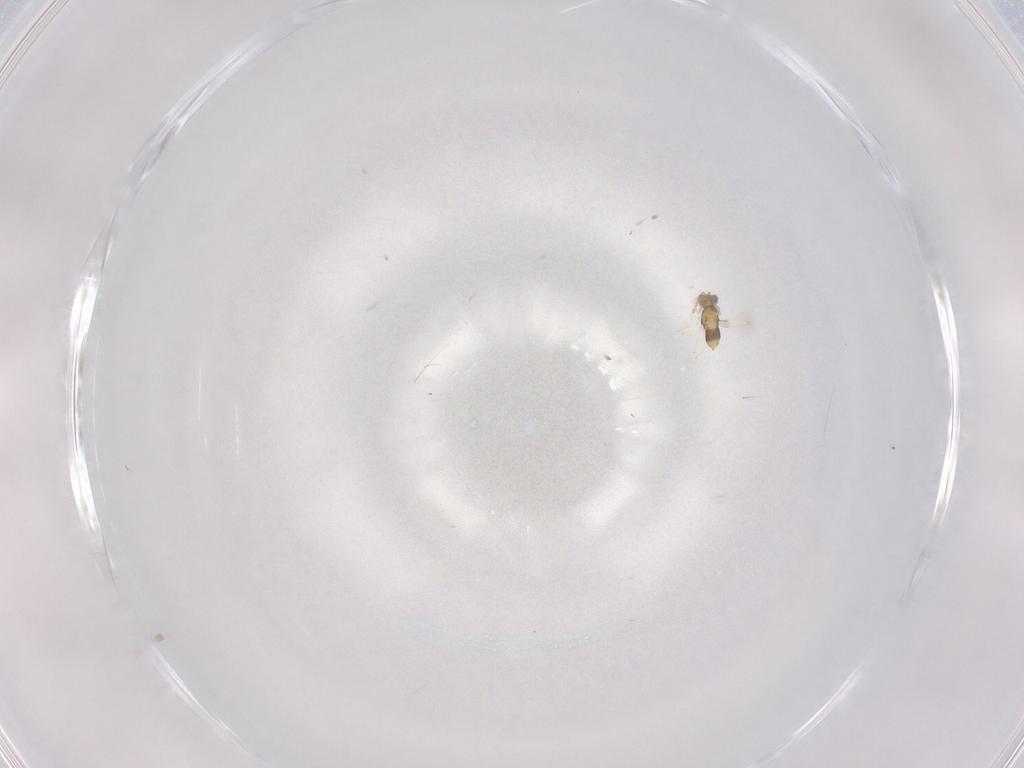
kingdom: Animalia
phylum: Arthropoda
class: Insecta
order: Hymenoptera
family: Aphelinidae
